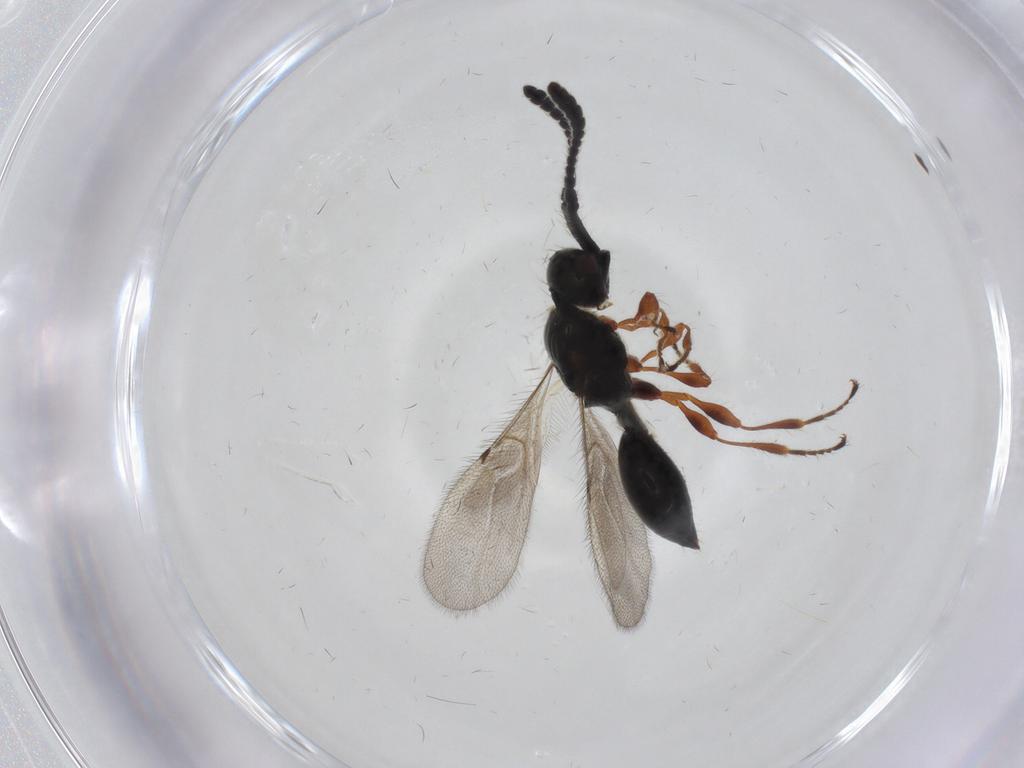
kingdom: Animalia
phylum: Arthropoda
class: Insecta
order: Hymenoptera
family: Diapriidae
